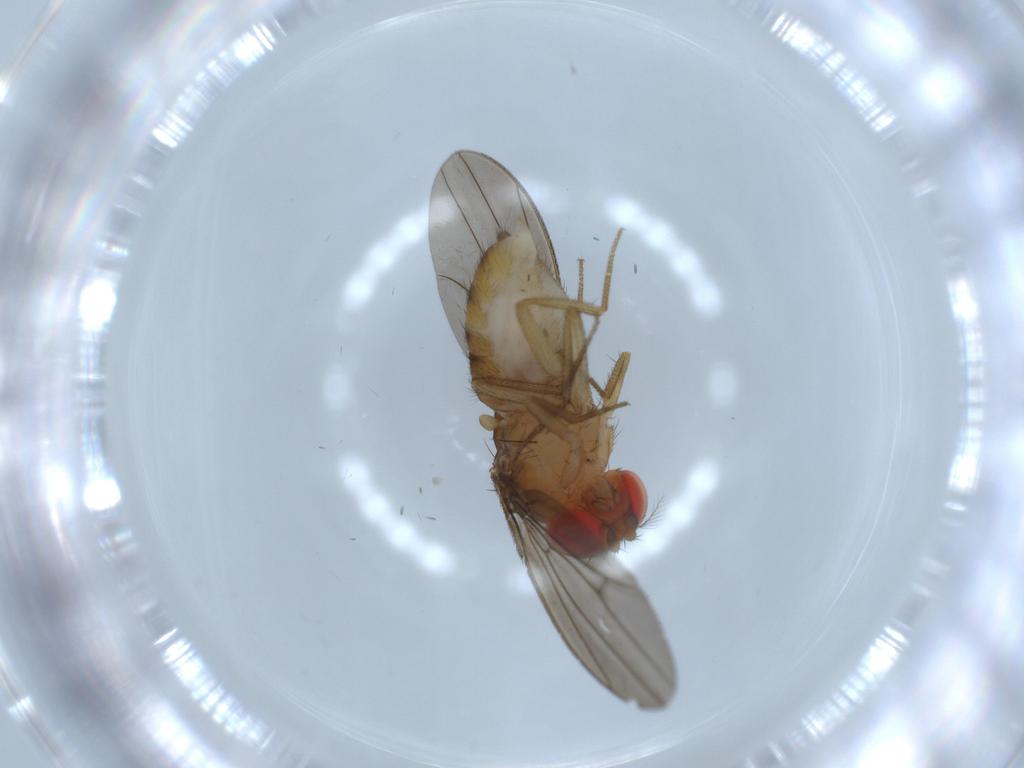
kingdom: Animalia
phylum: Arthropoda
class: Insecta
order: Diptera
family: Drosophilidae
